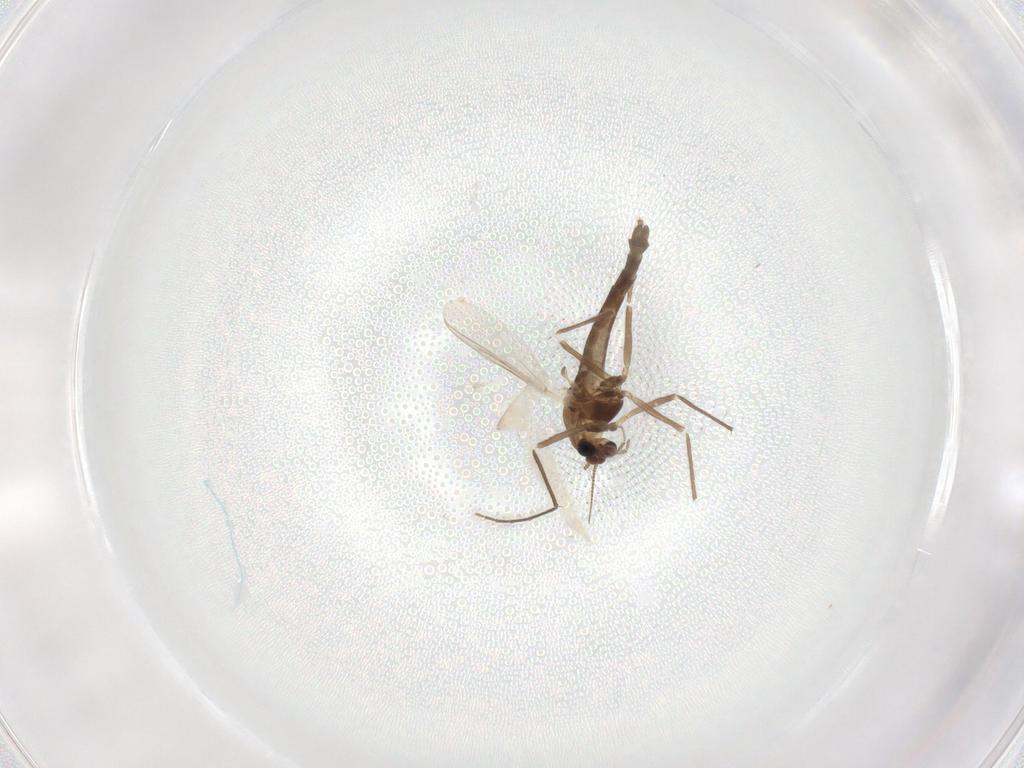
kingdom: Animalia
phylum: Arthropoda
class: Insecta
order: Diptera
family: Chironomidae
